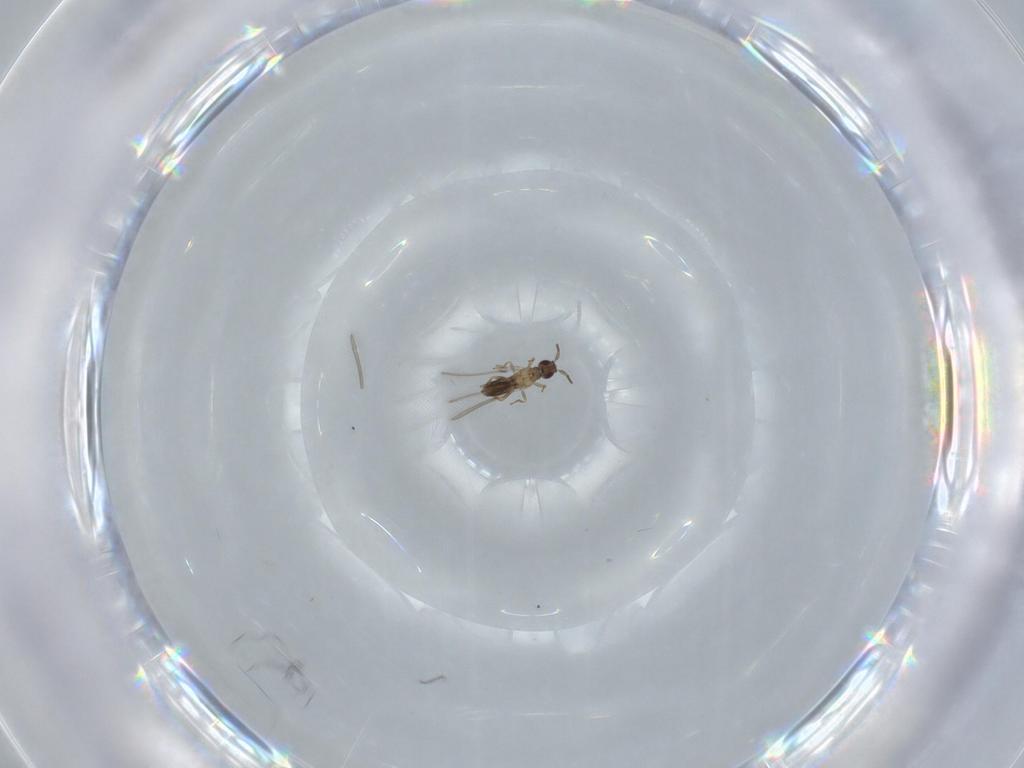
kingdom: Animalia
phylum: Arthropoda
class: Insecta
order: Hymenoptera
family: Mymaridae
